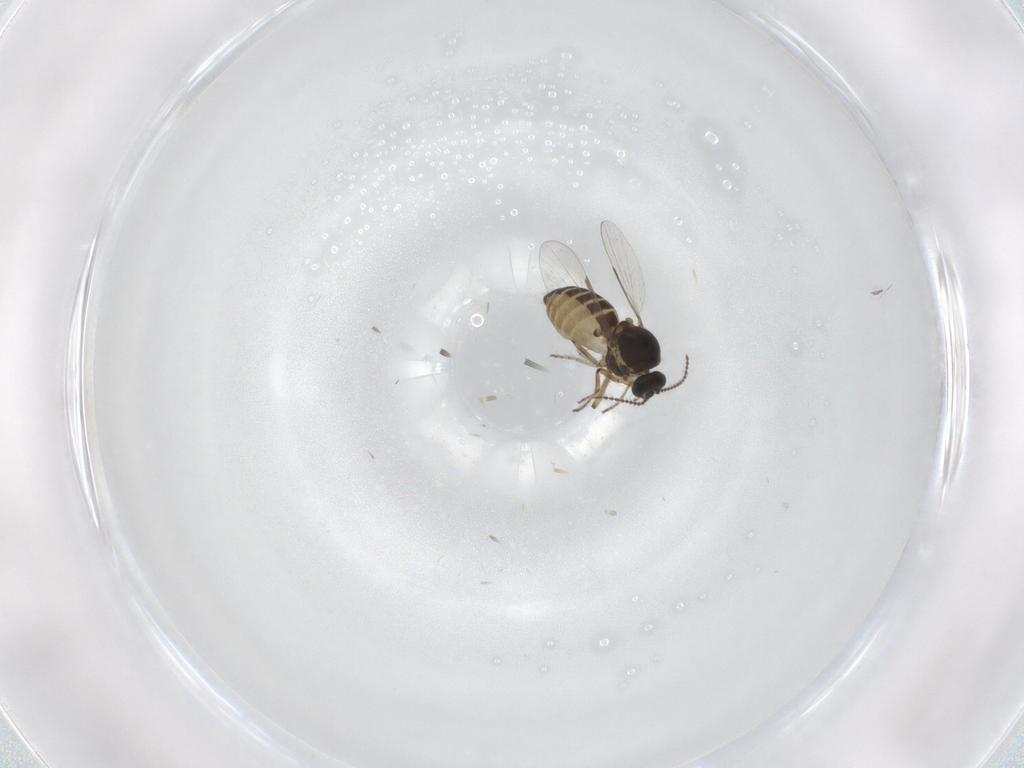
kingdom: Animalia
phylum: Arthropoda
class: Insecta
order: Diptera
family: Ceratopogonidae
